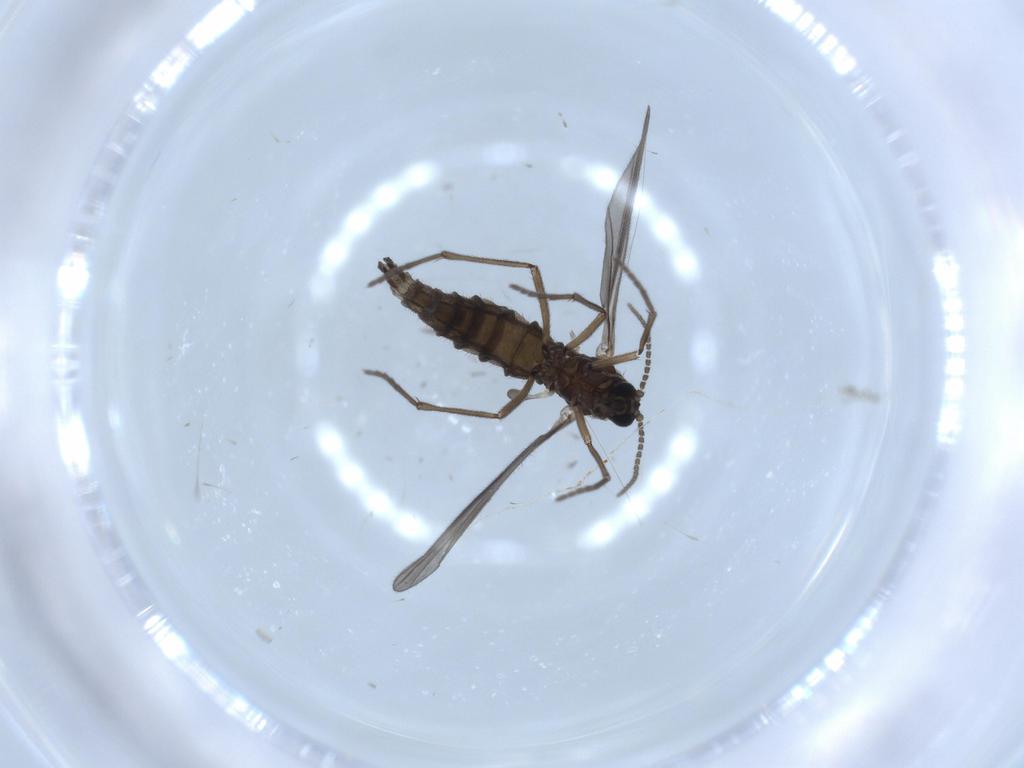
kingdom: Animalia
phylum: Arthropoda
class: Insecta
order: Diptera
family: Sciaridae
